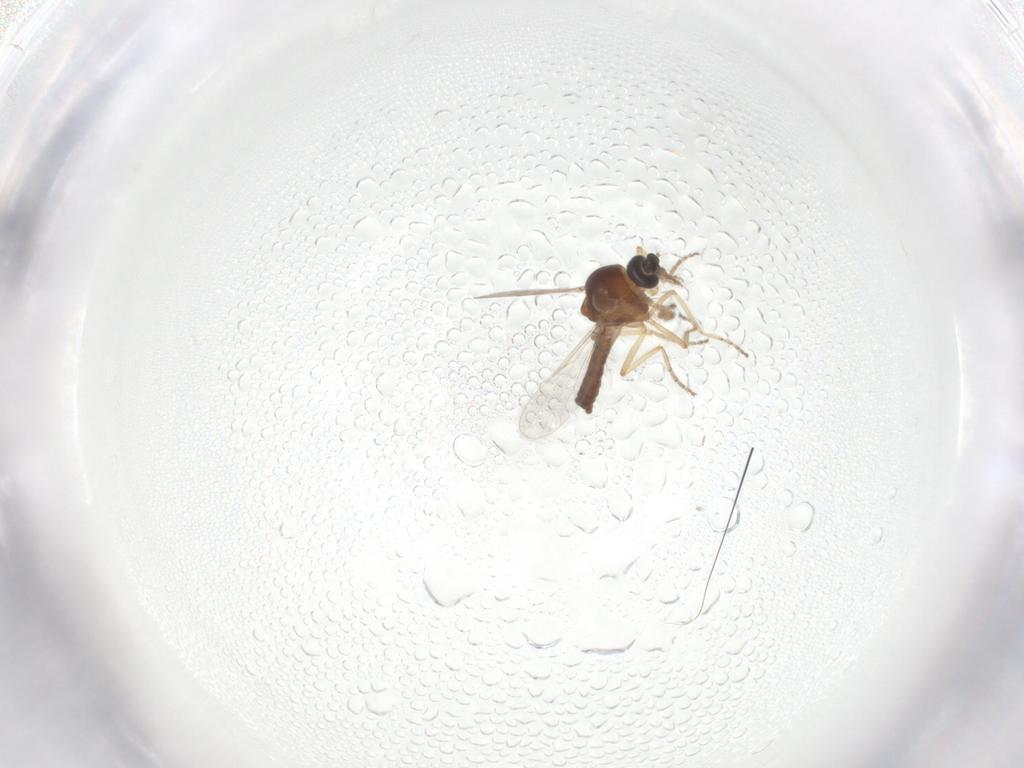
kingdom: Animalia
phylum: Arthropoda
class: Insecta
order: Diptera
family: Ceratopogonidae
